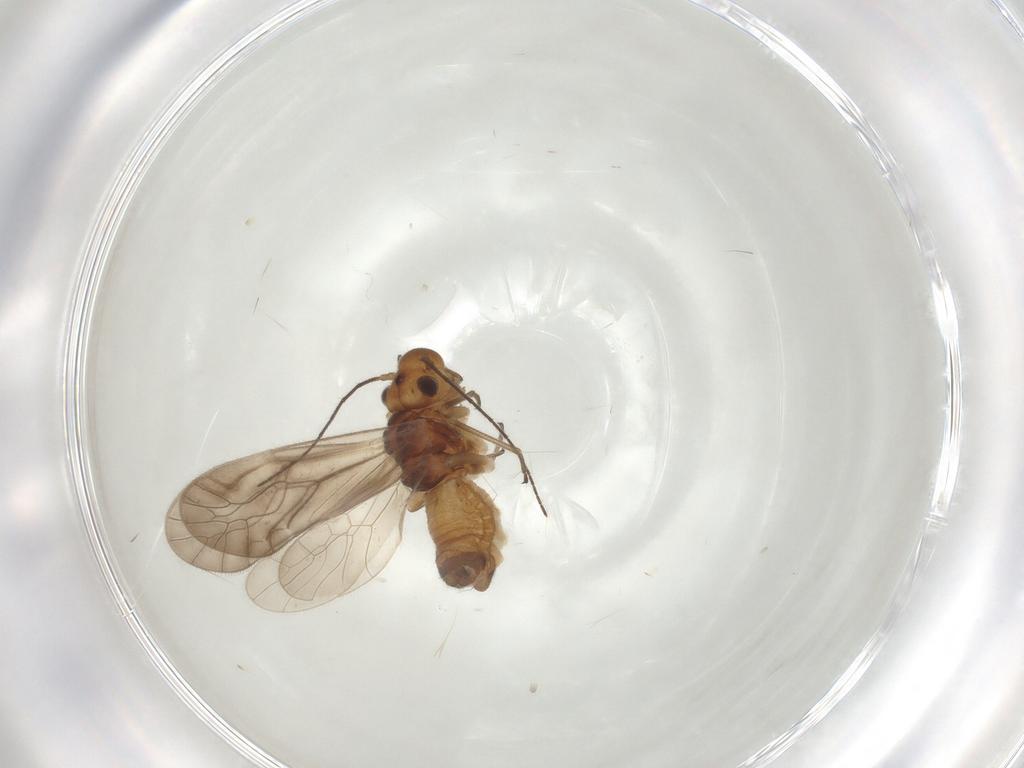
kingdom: Animalia
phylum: Arthropoda
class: Insecta
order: Psocodea
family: Philotarsidae
